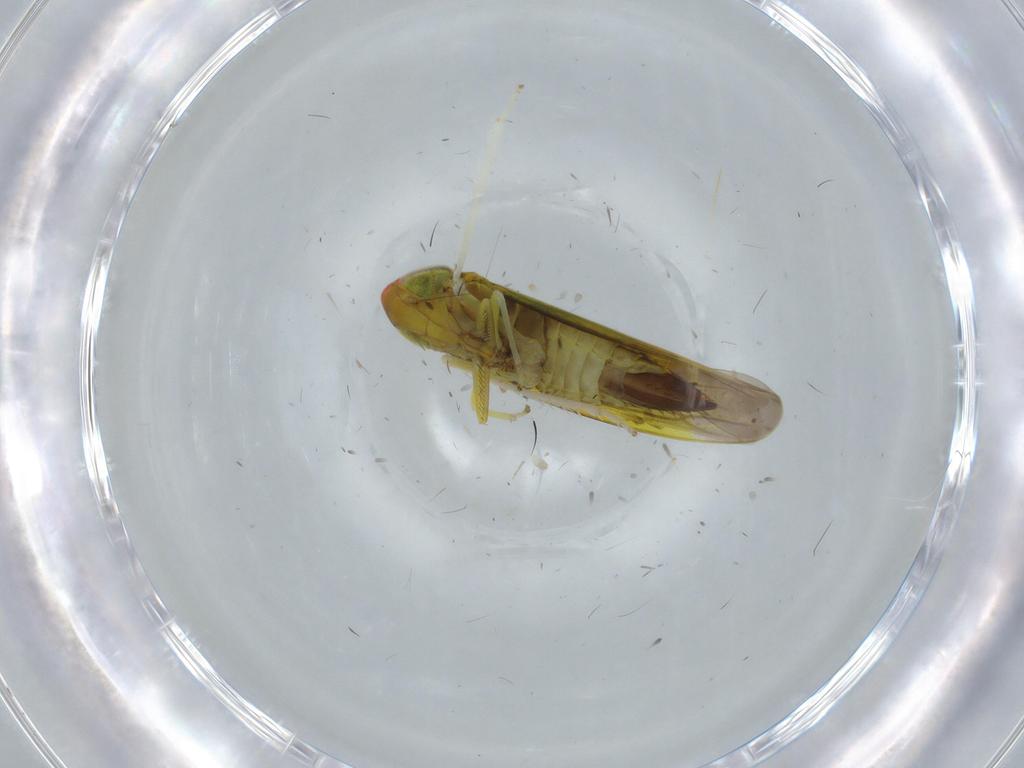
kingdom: Animalia
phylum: Arthropoda
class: Insecta
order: Hemiptera
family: Cicadellidae
